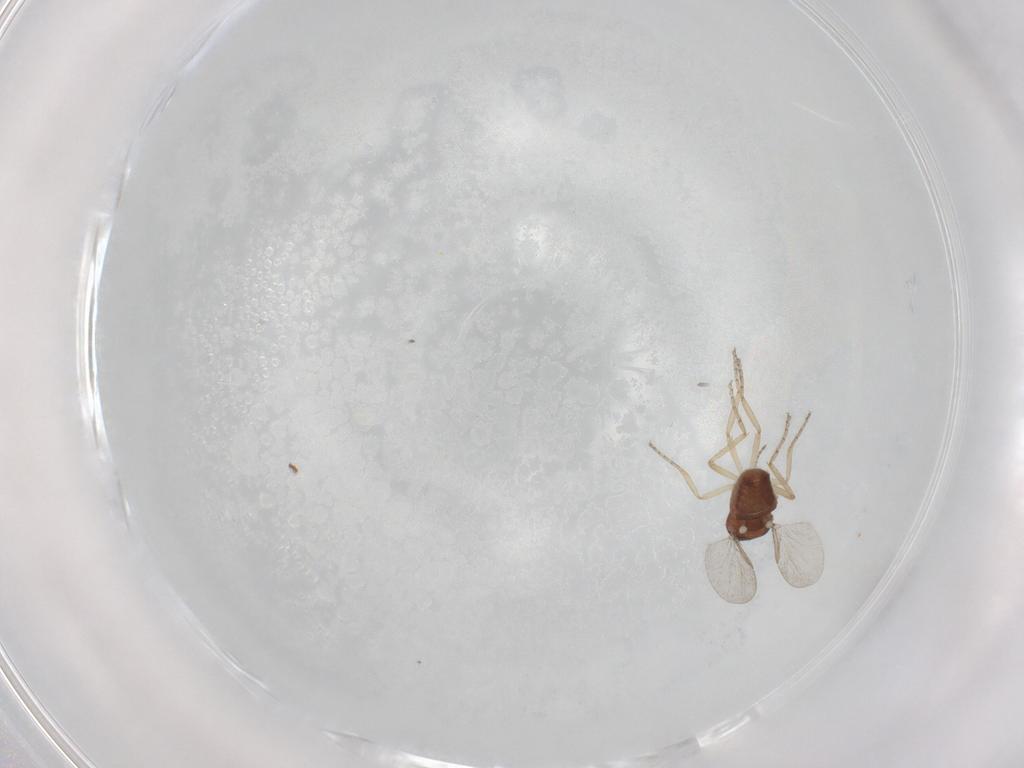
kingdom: Animalia
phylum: Arthropoda
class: Insecta
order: Diptera
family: Ceratopogonidae
